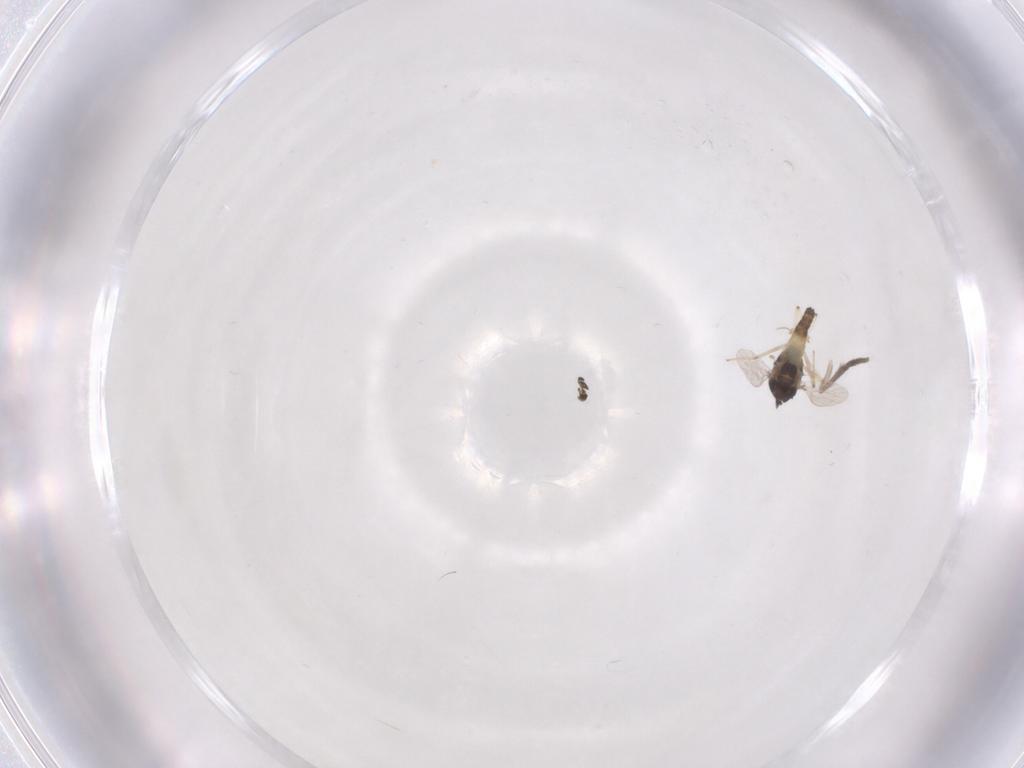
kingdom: Animalia
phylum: Arthropoda
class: Insecta
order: Diptera
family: Chironomidae
